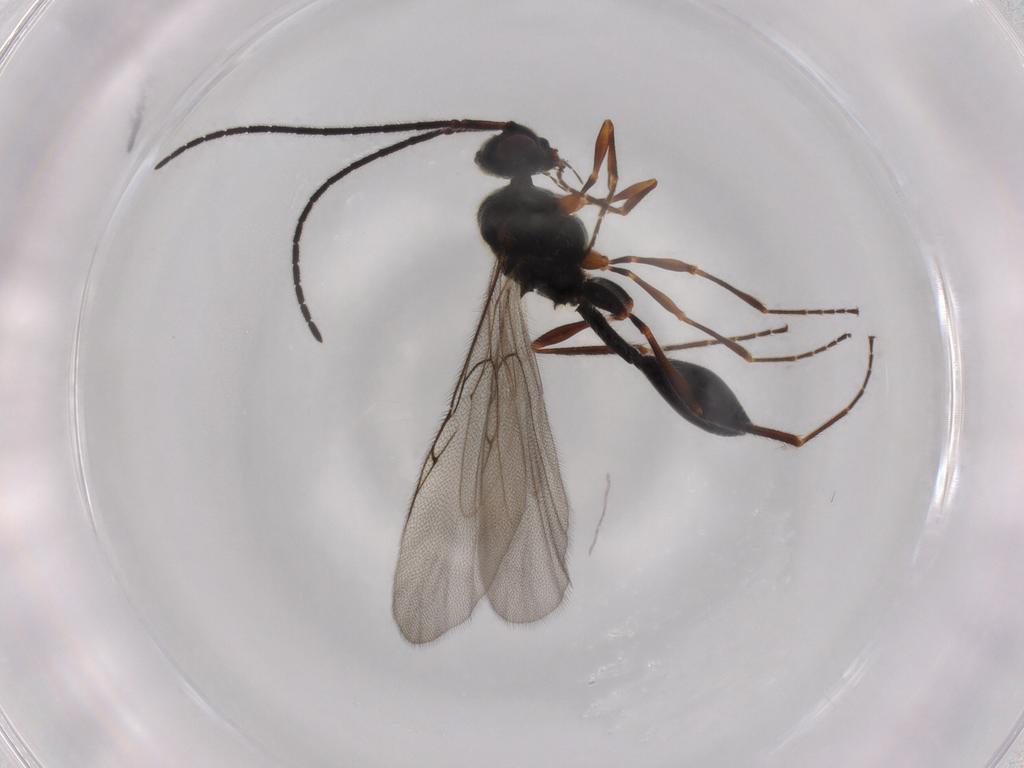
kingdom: Animalia
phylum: Arthropoda
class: Insecta
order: Hymenoptera
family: Diapriidae
